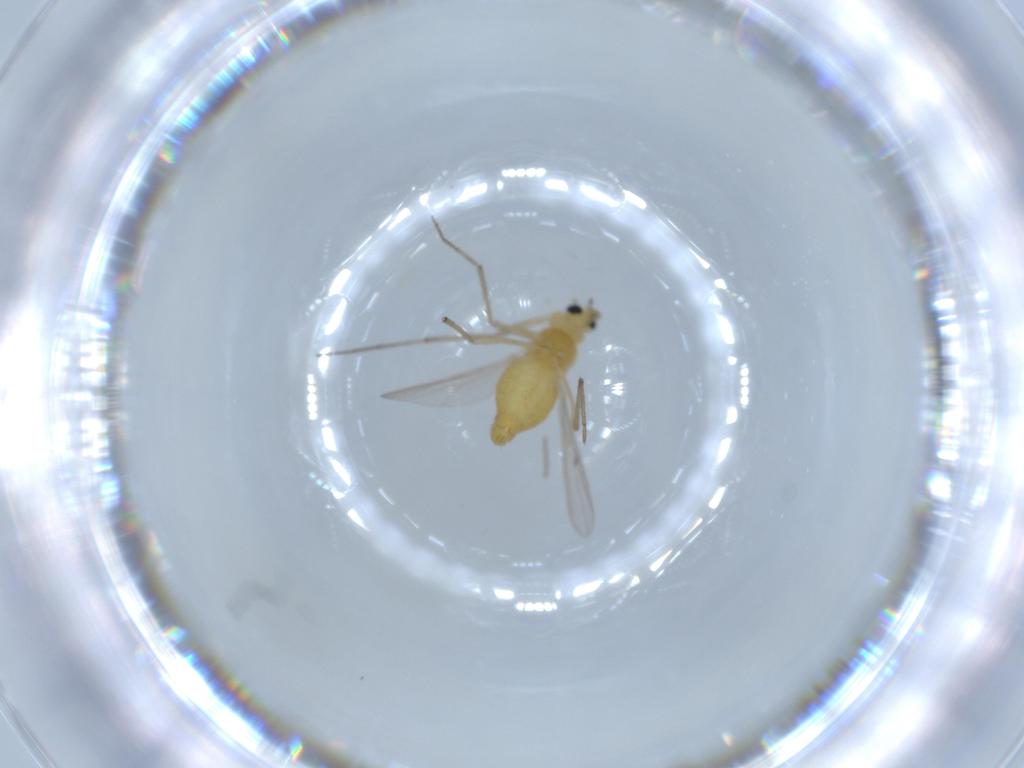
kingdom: Animalia
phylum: Arthropoda
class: Insecta
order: Diptera
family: Chironomidae
